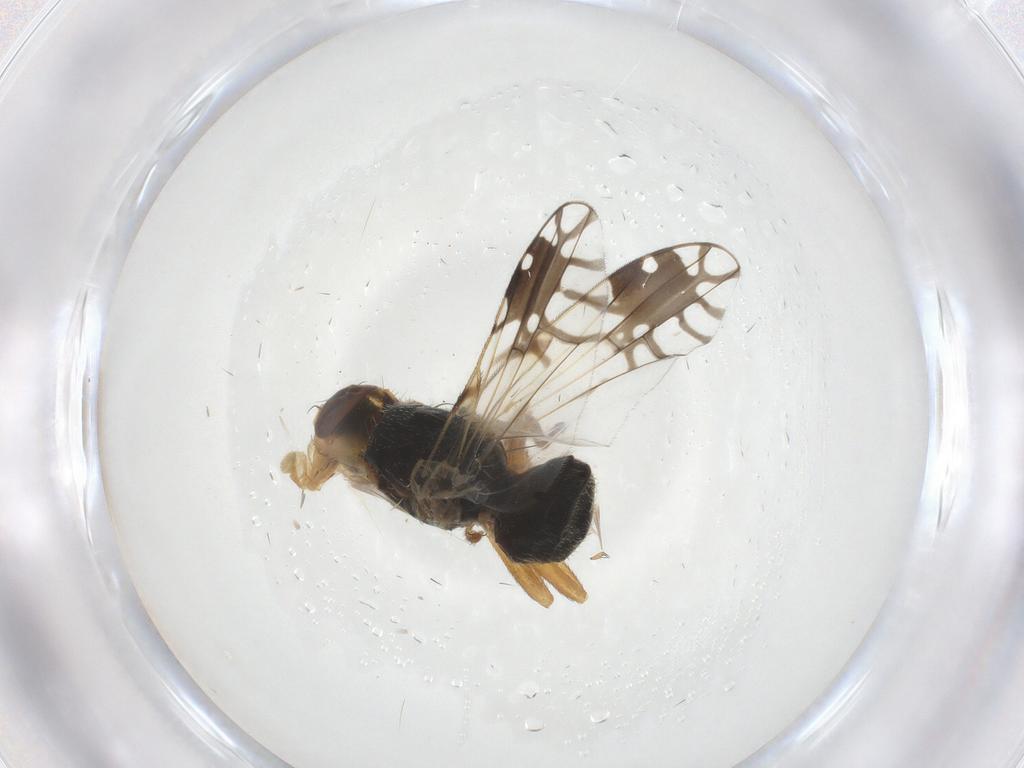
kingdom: Animalia
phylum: Arthropoda
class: Insecta
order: Diptera
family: Tephritidae
